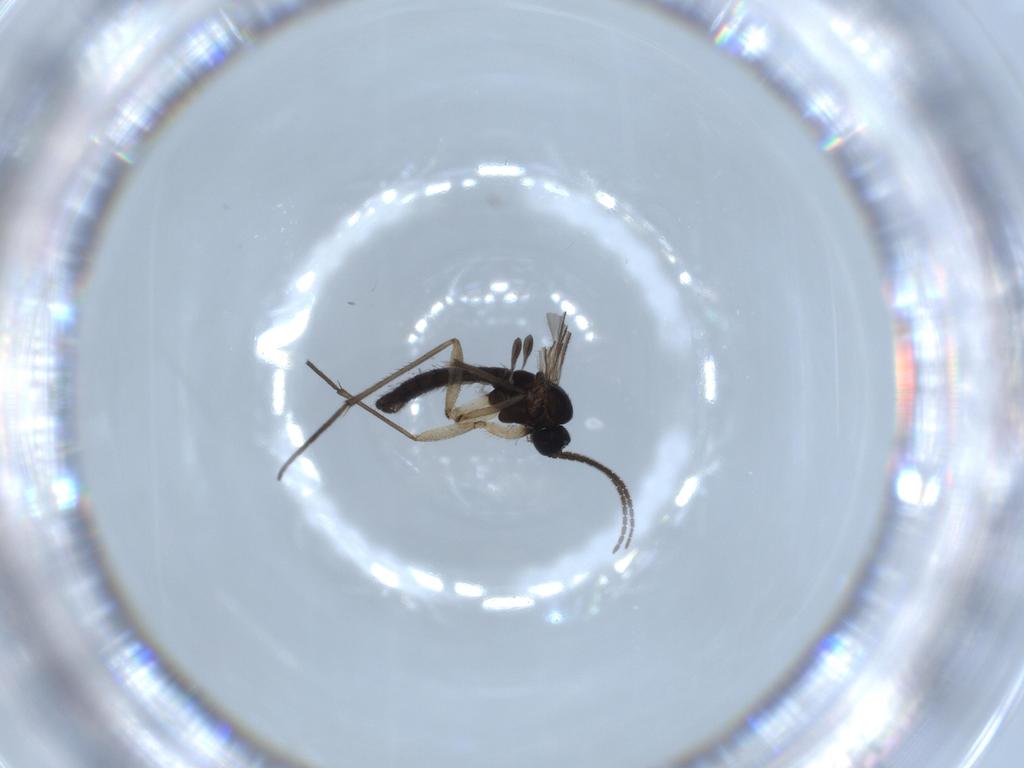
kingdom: Animalia
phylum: Arthropoda
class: Insecta
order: Diptera
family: Sciaridae
